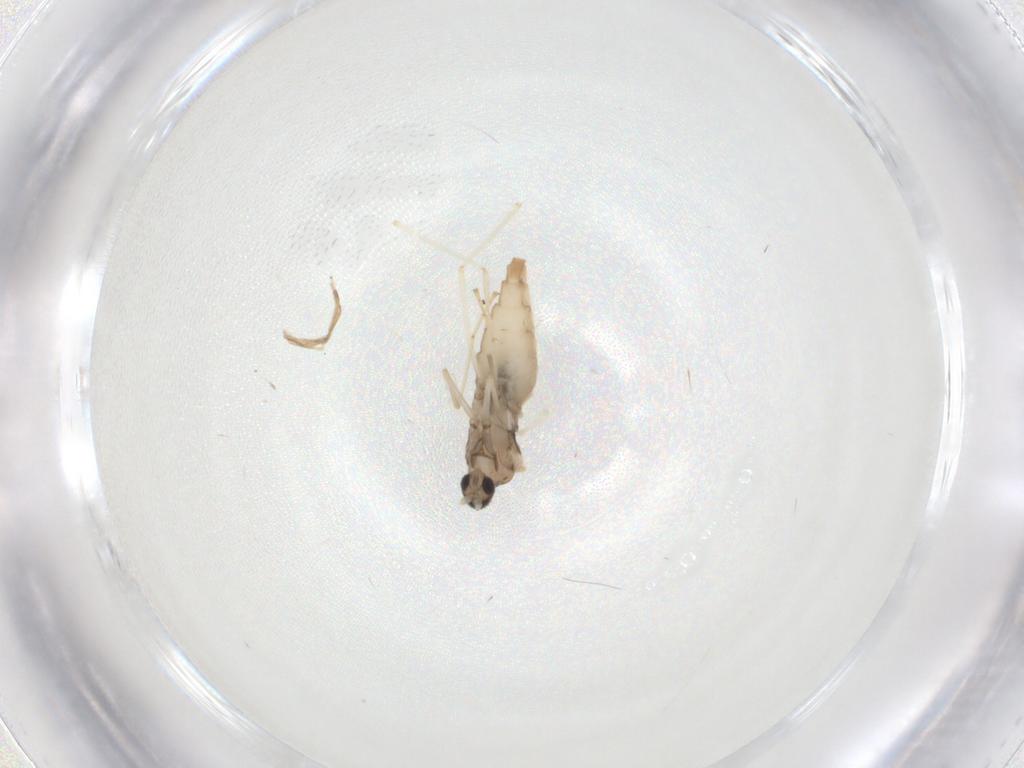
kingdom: Animalia
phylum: Arthropoda
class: Insecta
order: Diptera
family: Cecidomyiidae
